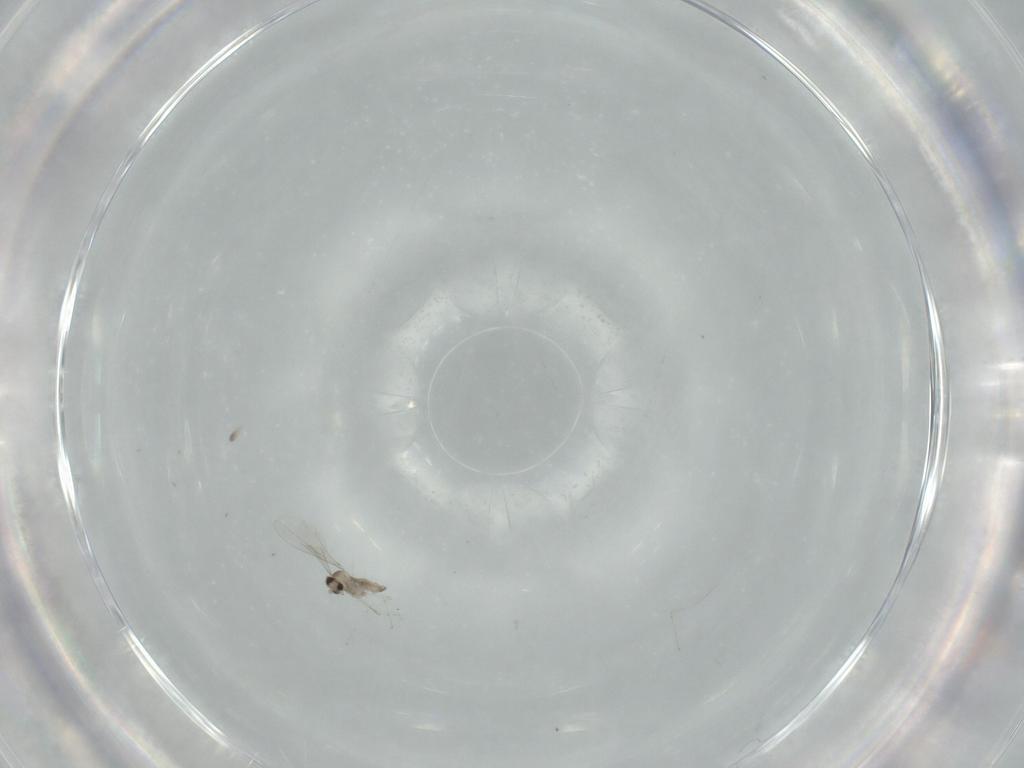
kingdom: Animalia
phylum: Arthropoda
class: Insecta
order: Diptera
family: Cecidomyiidae
